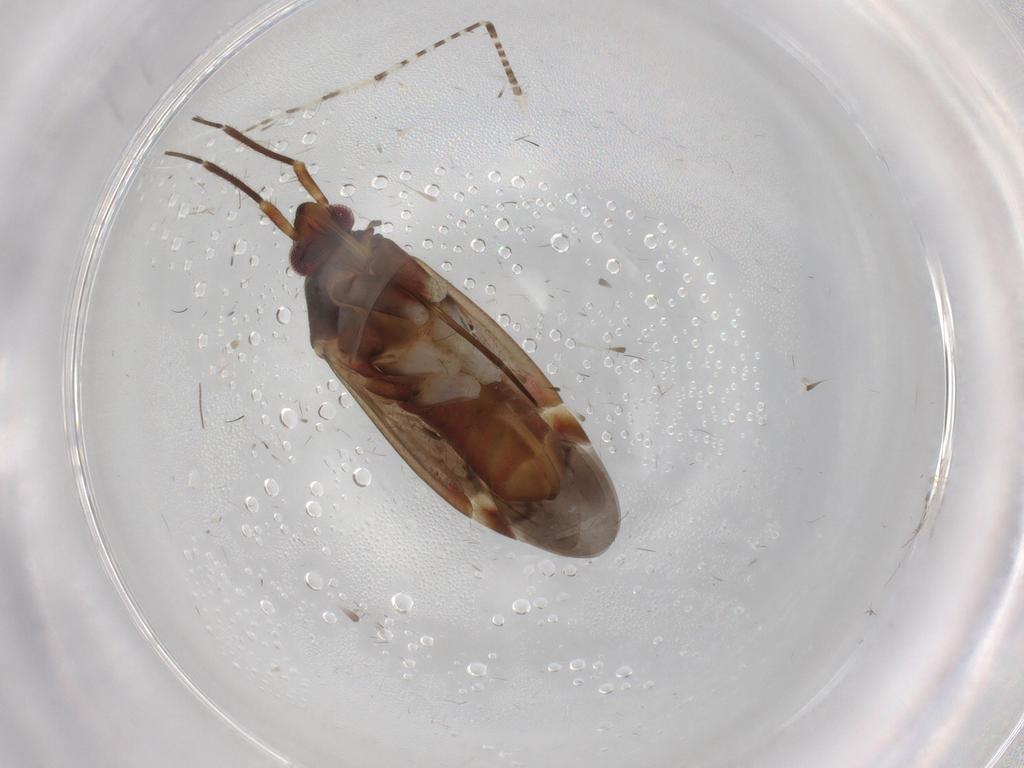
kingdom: Animalia
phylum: Arthropoda
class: Insecta
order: Hemiptera
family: Miridae
